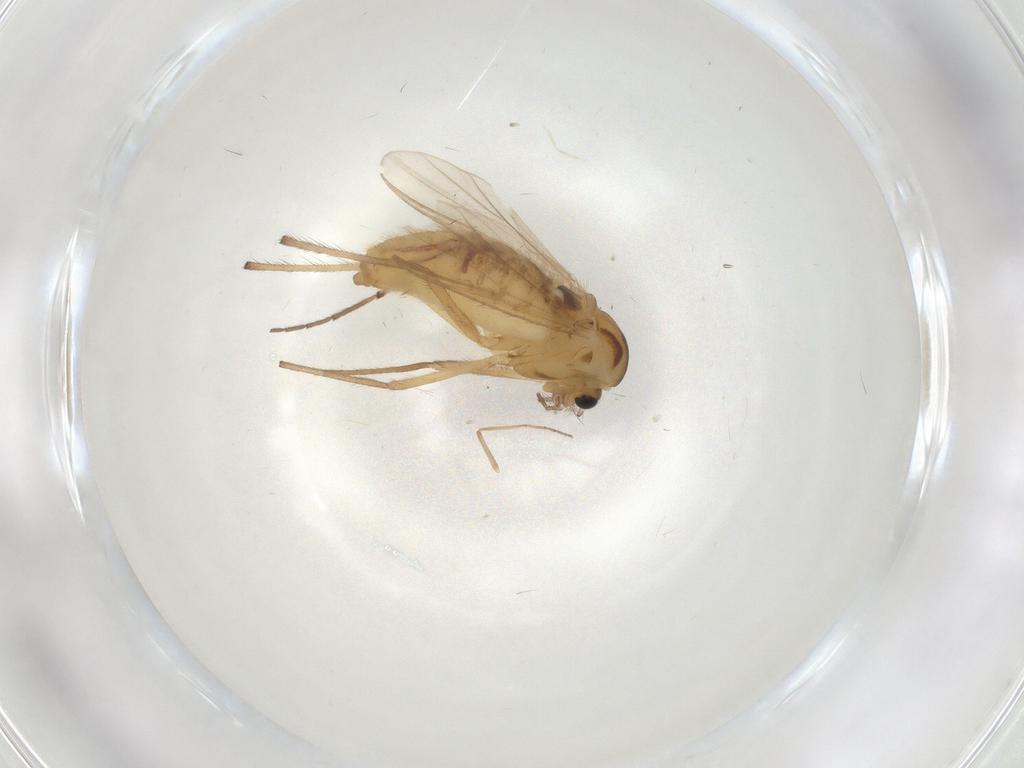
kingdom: Animalia
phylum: Arthropoda
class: Insecta
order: Diptera
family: Chironomidae
